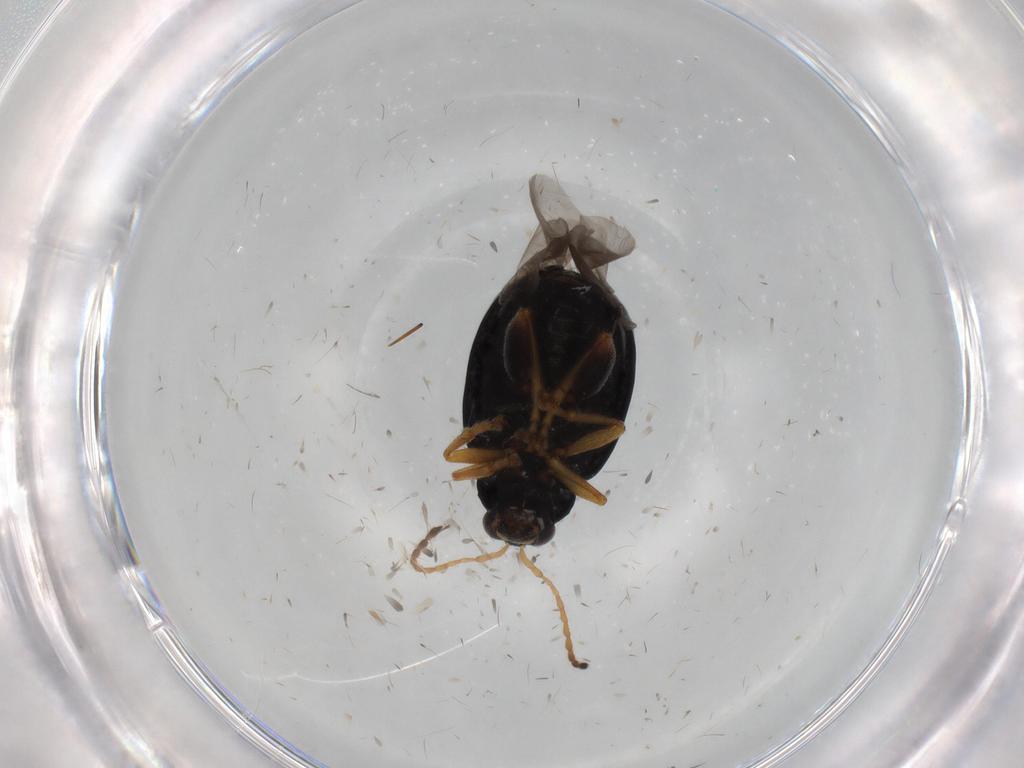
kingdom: Animalia
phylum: Arthropoda
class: Insecta
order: Coleoptera
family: Chrysomelidae
